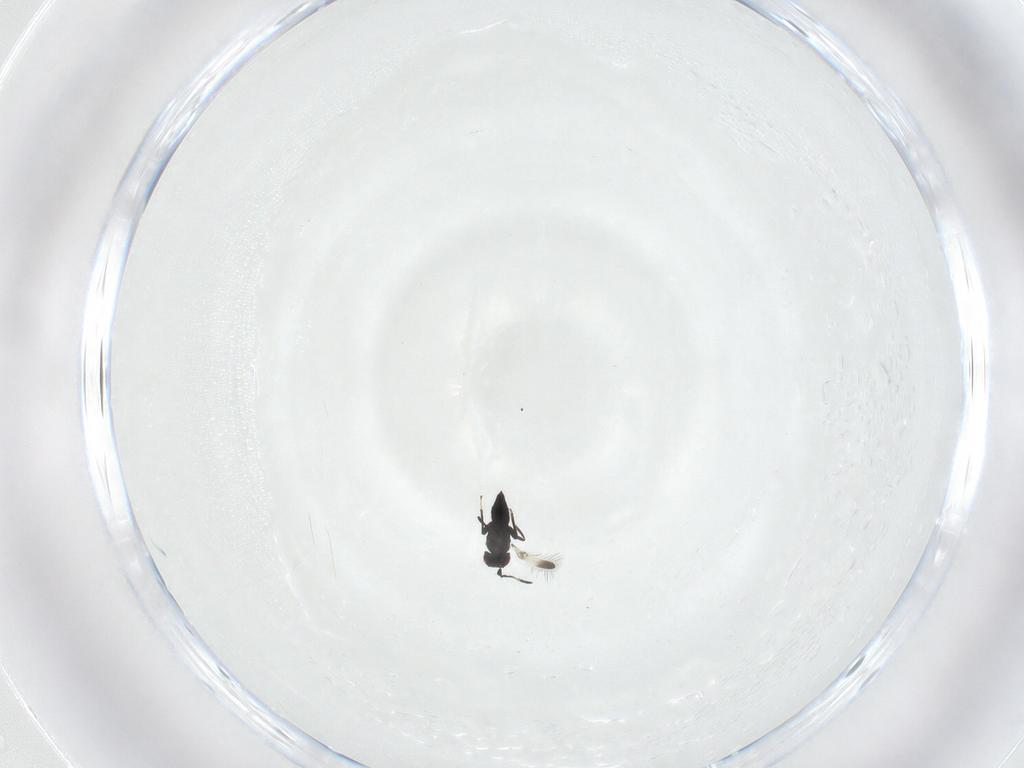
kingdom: Animalia
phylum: Arthropoda
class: Insecta
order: Hymenoptera
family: Mymaridae
